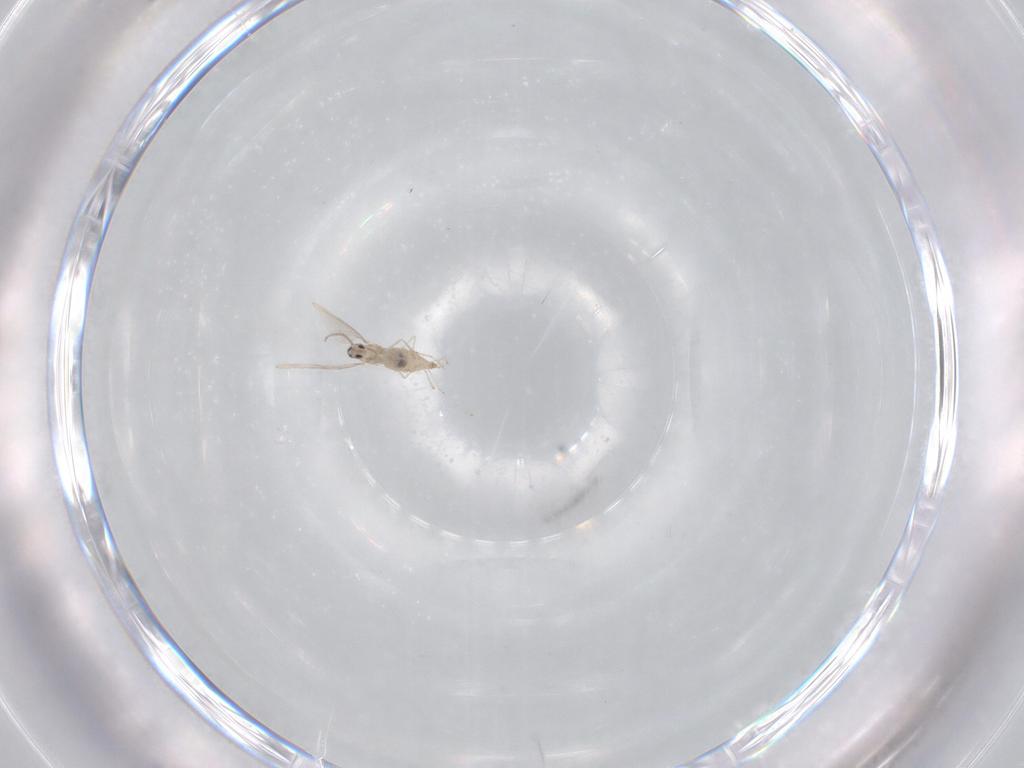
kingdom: Animalia
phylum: Arthropoda
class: Insecta
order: Diptera
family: Cecidomyiidae
